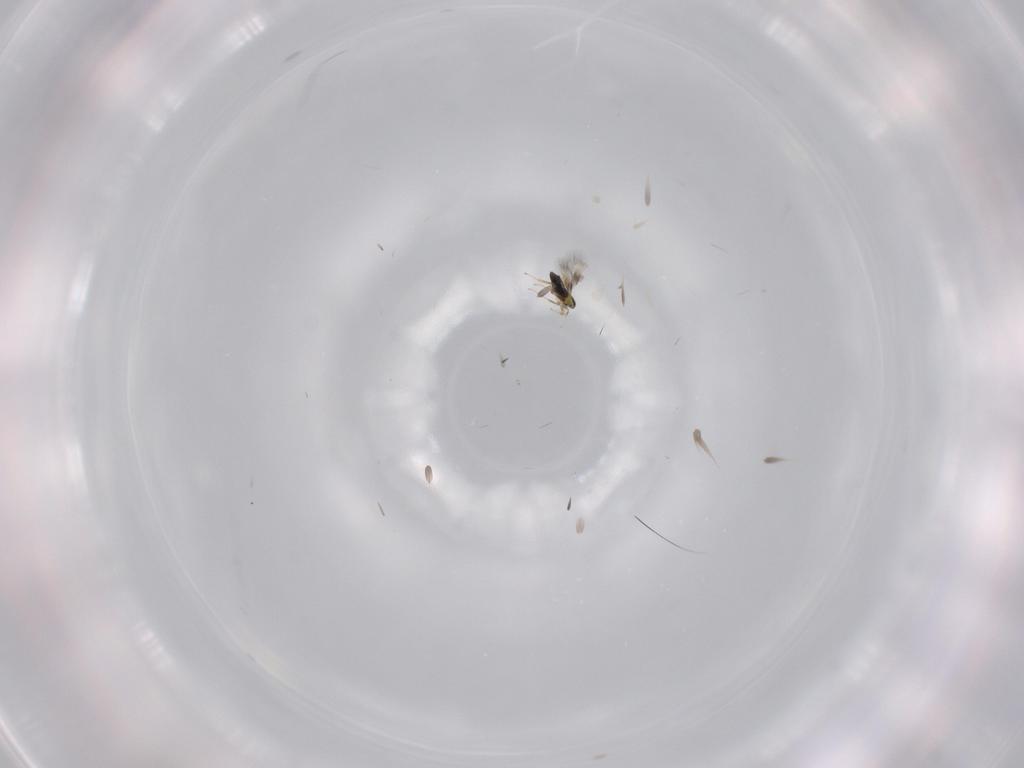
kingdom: Animalia
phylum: Arthropoda
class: Insecta
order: Hymenoptera
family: Signiphoridae
